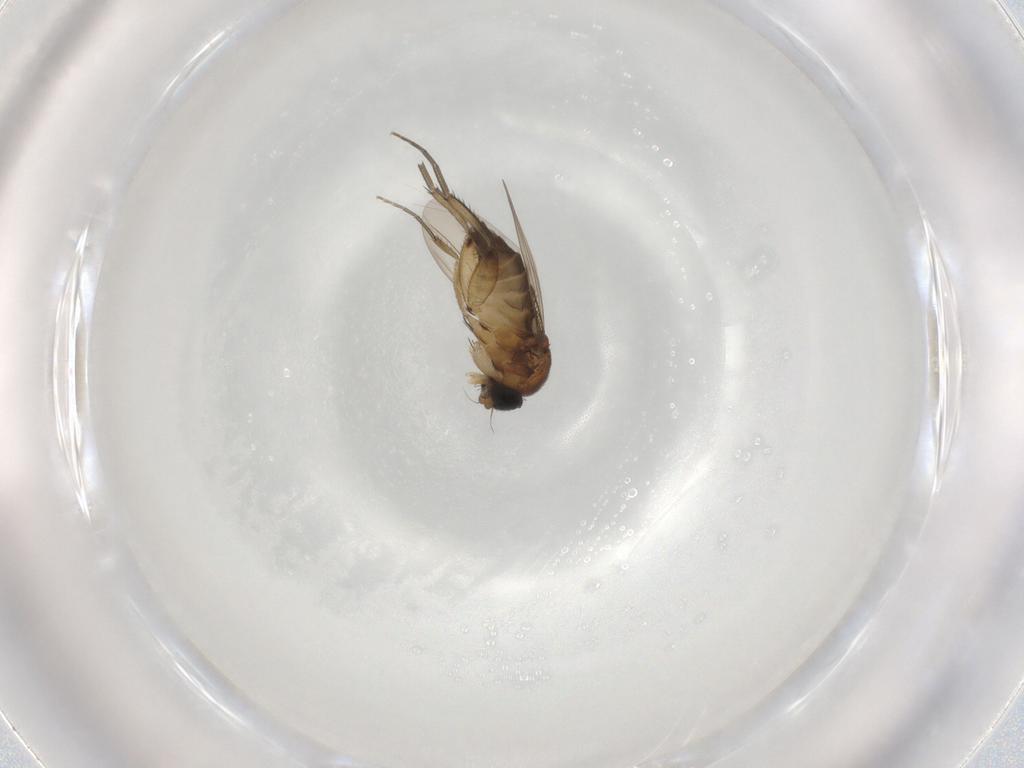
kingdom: Animalia
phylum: Arthropoda
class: Insecta
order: Diptera
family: Phoridae
